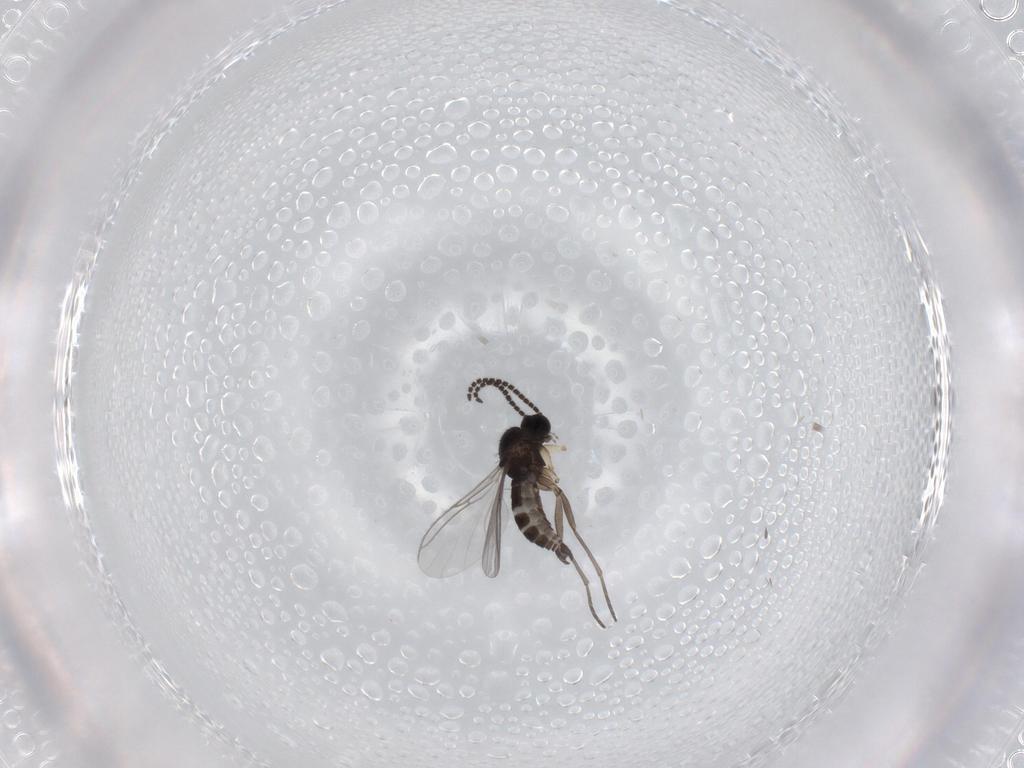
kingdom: Animalia
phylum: Arthropoda
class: Insecta
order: Diptera
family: Sciaridae
